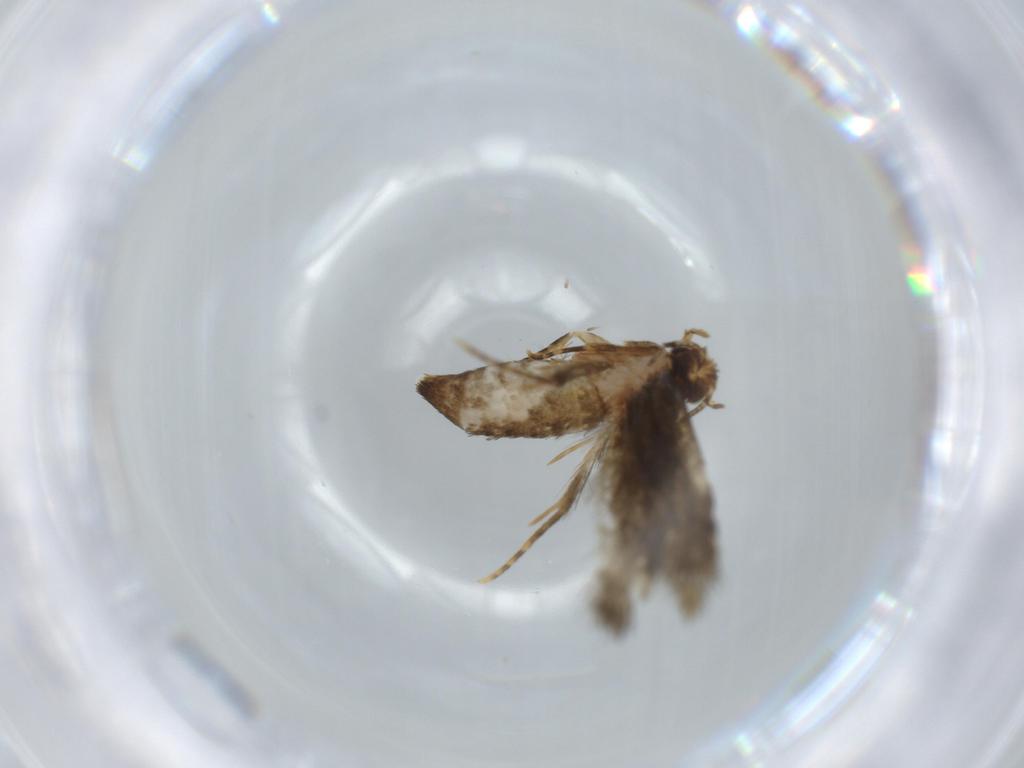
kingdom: Animalia
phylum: Arthropoda
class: Insecta
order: Lepidoptera
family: Tineidae
